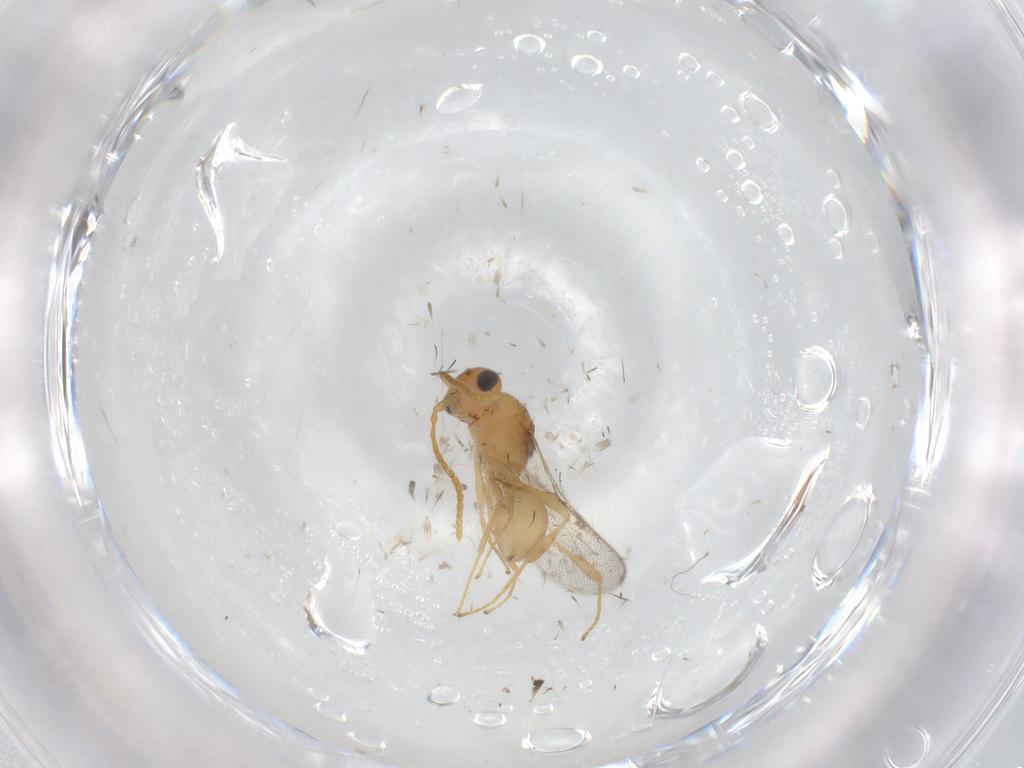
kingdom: Animalia
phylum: Arthropoda
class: Insecta
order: Hymenoptera
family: Diapriidae
